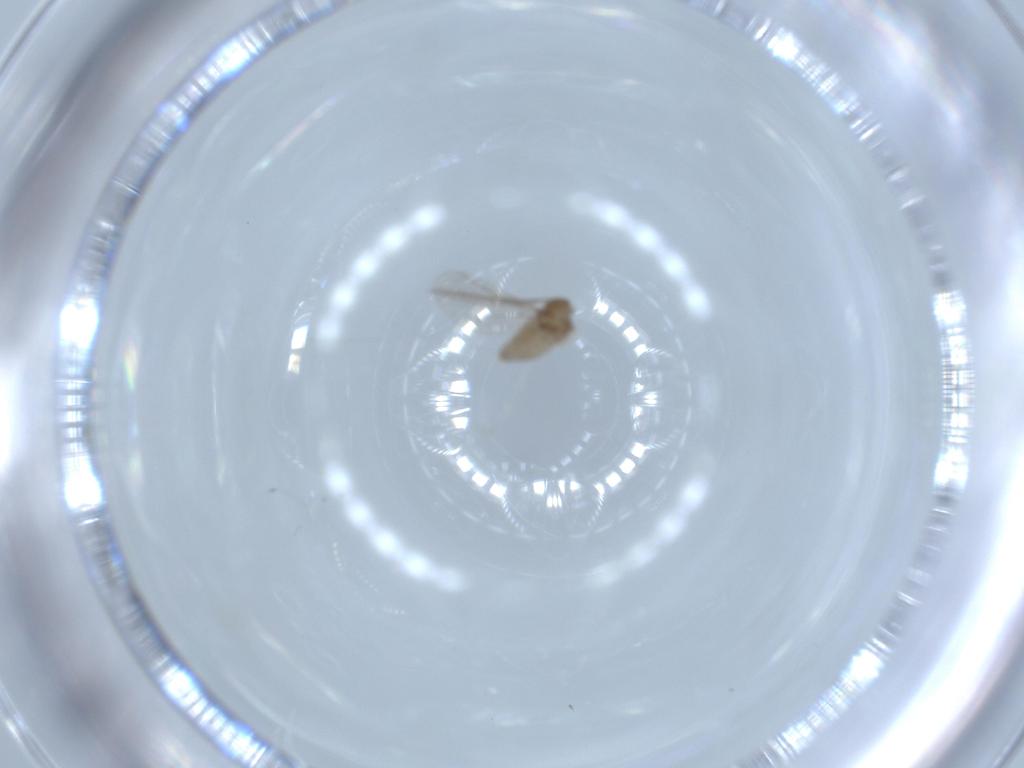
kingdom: Animalia
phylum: Arthropoda
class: Insecta
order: Diptera
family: Cecidomyiidae
